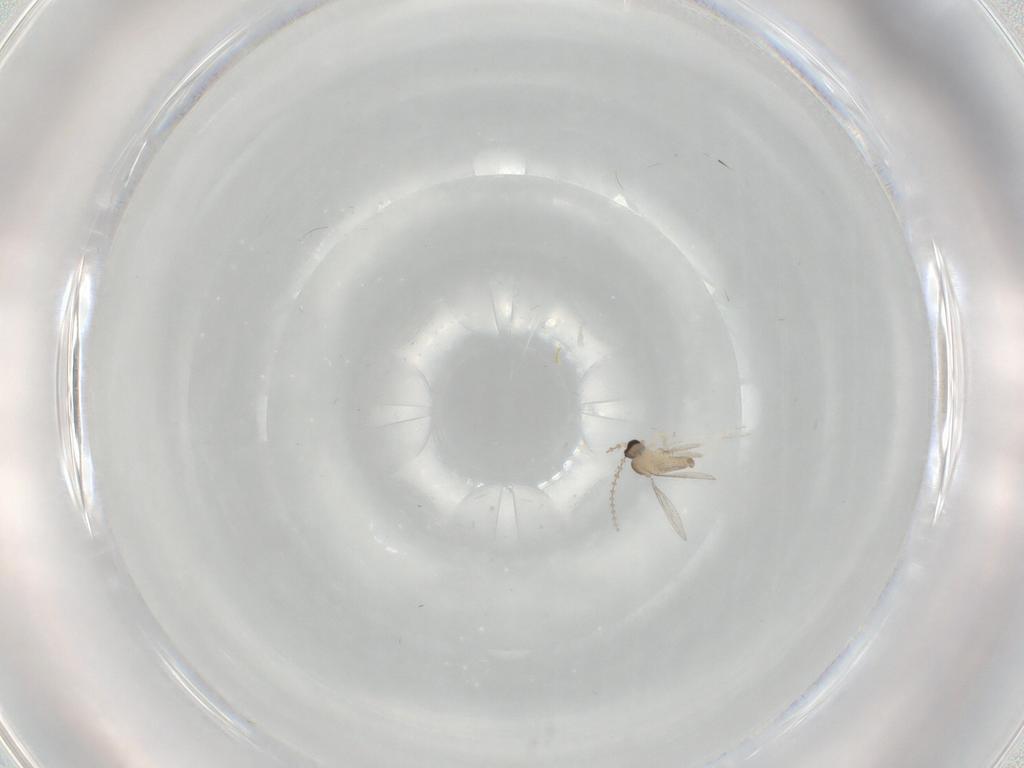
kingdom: Animalia
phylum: Arthropoda
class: Insecta
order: Diptera
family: Cecidomyiidae
